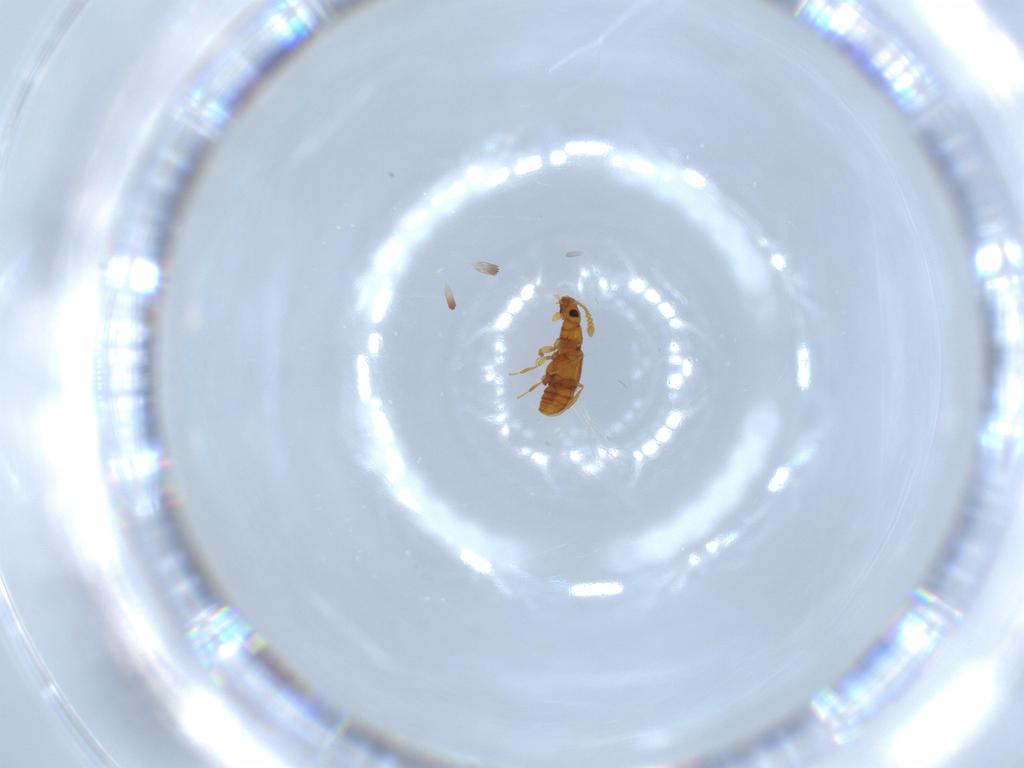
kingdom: Animalia
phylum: Arthropoda
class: Insecta
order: Coleoptera
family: Staphylinidae
